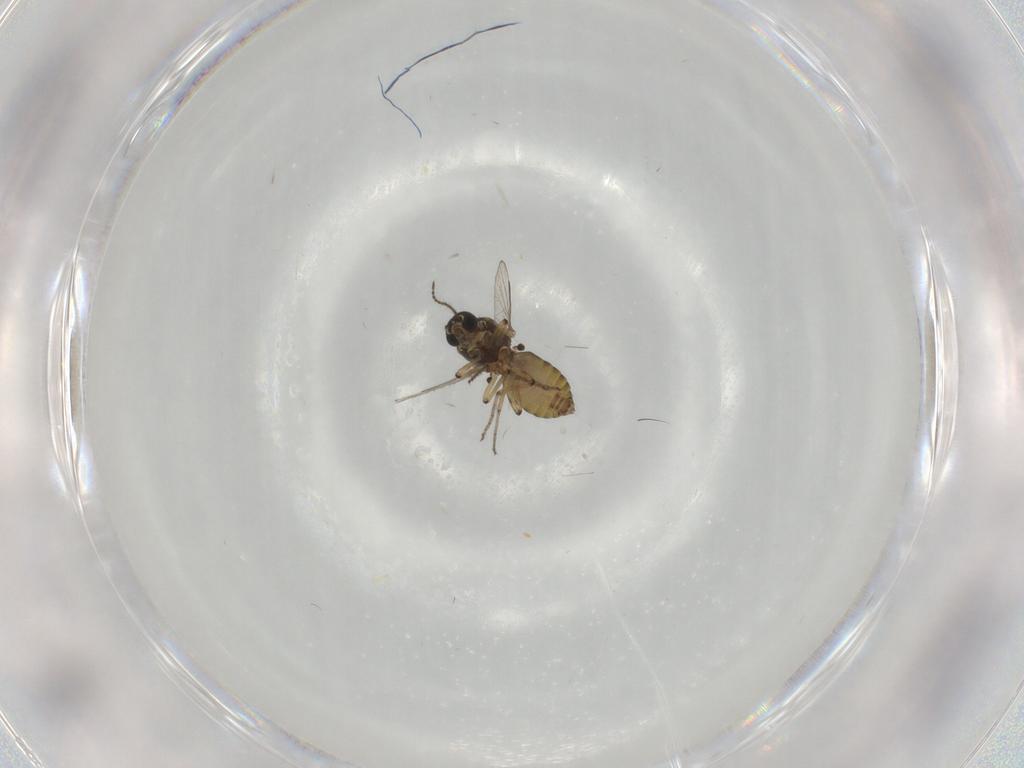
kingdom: Animalia
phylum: Arthropoda
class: Insecta
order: Diptera
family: Ceratopogonidae
